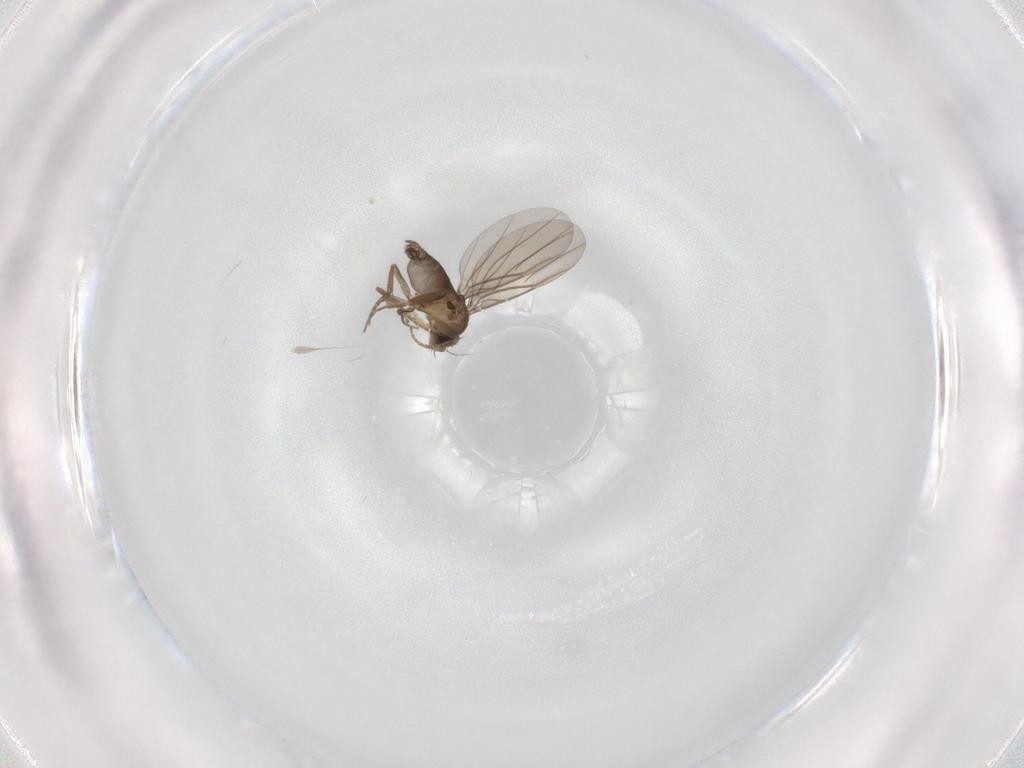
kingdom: Animalia
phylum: Arthropoda
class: Insecta
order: Diptera
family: Phoridae
